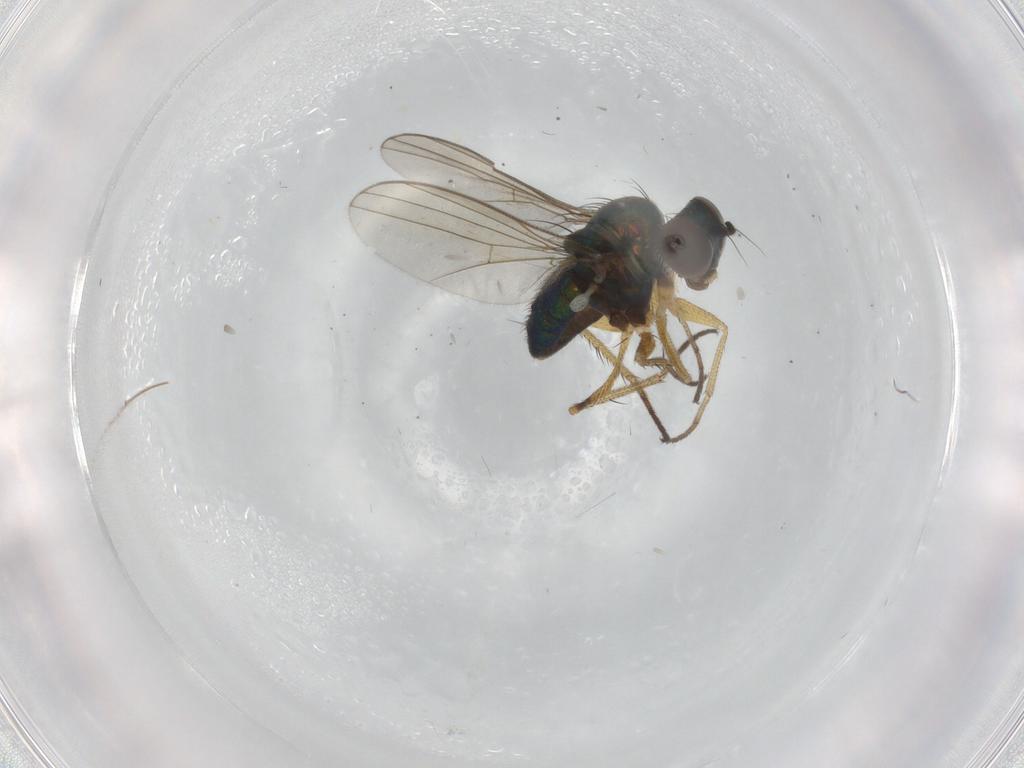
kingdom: Animalia
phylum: Arthropoda
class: Insecta
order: Diptera
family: Dolichopodidae
